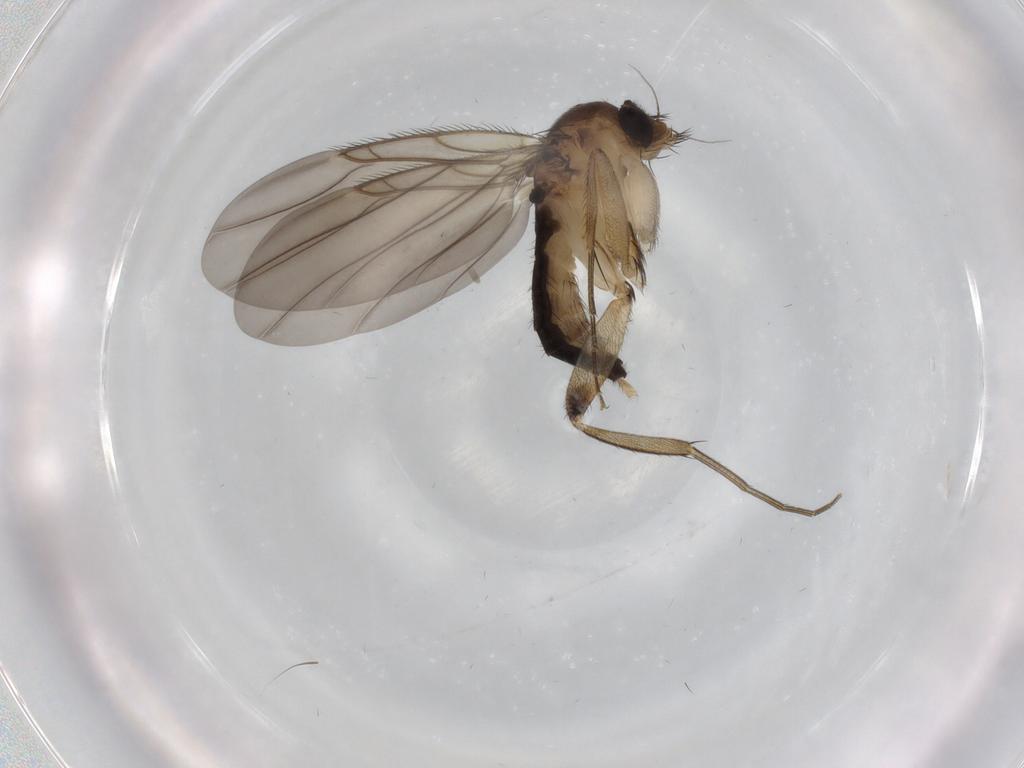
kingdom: Animalia
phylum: Arthropoda
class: Insecta
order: Diptera
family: Phoridae
